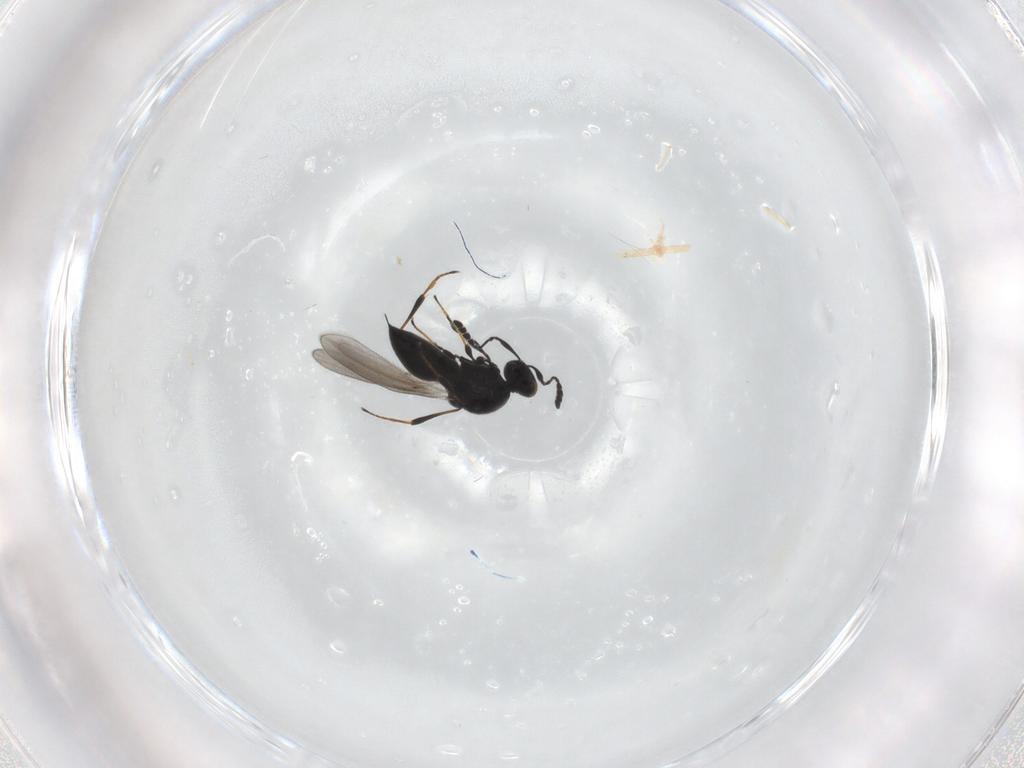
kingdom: Animalia
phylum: Arthropoda
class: Insecta
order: Hymenoptera
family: Platygastridae
